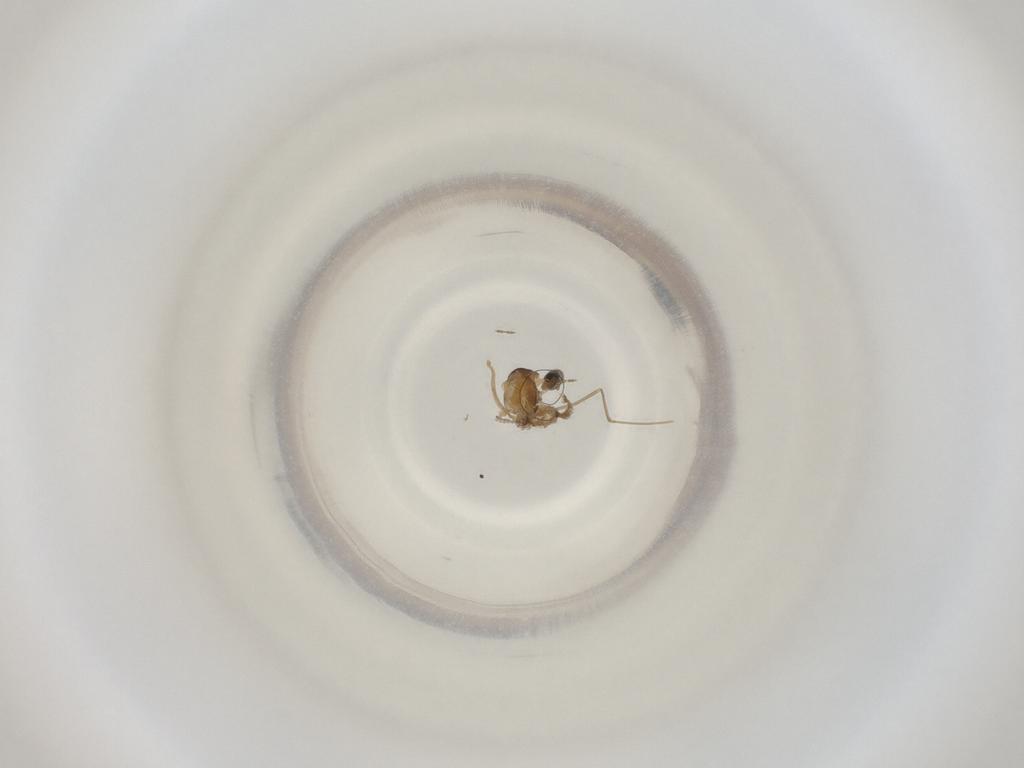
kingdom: Animalia
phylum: Arthropoda
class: Insecta
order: Diptera
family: Cecidomyiidae
